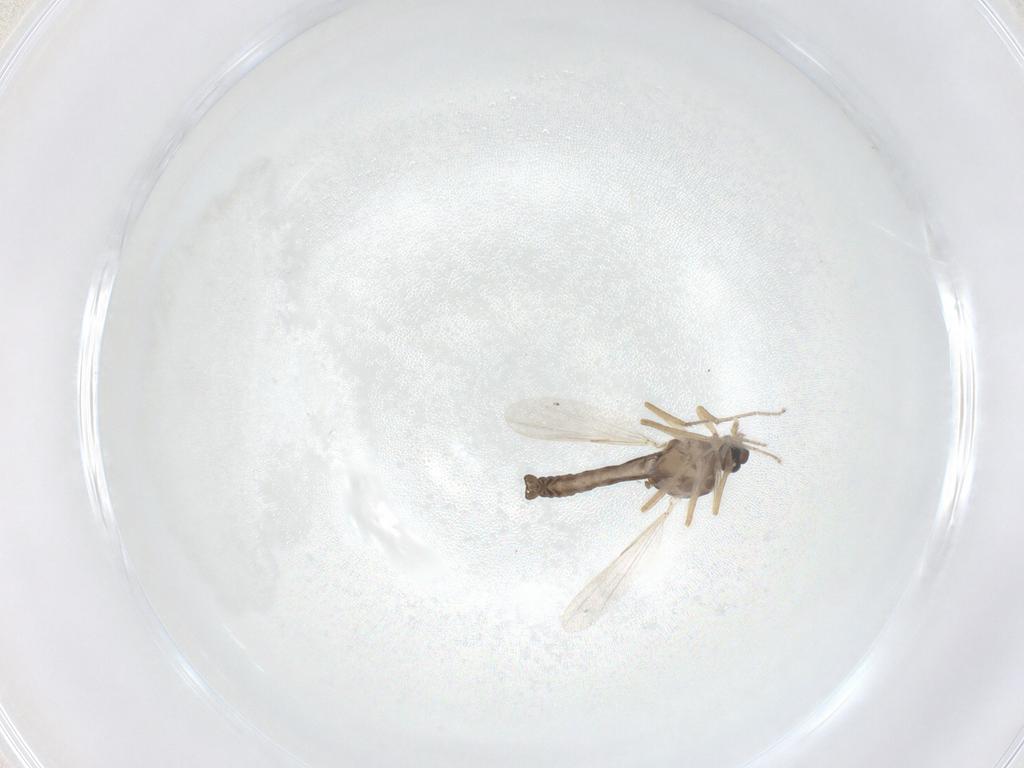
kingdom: Animalia
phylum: Arthropoda
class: Insecta
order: Diptera
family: Ceratopogonidae
